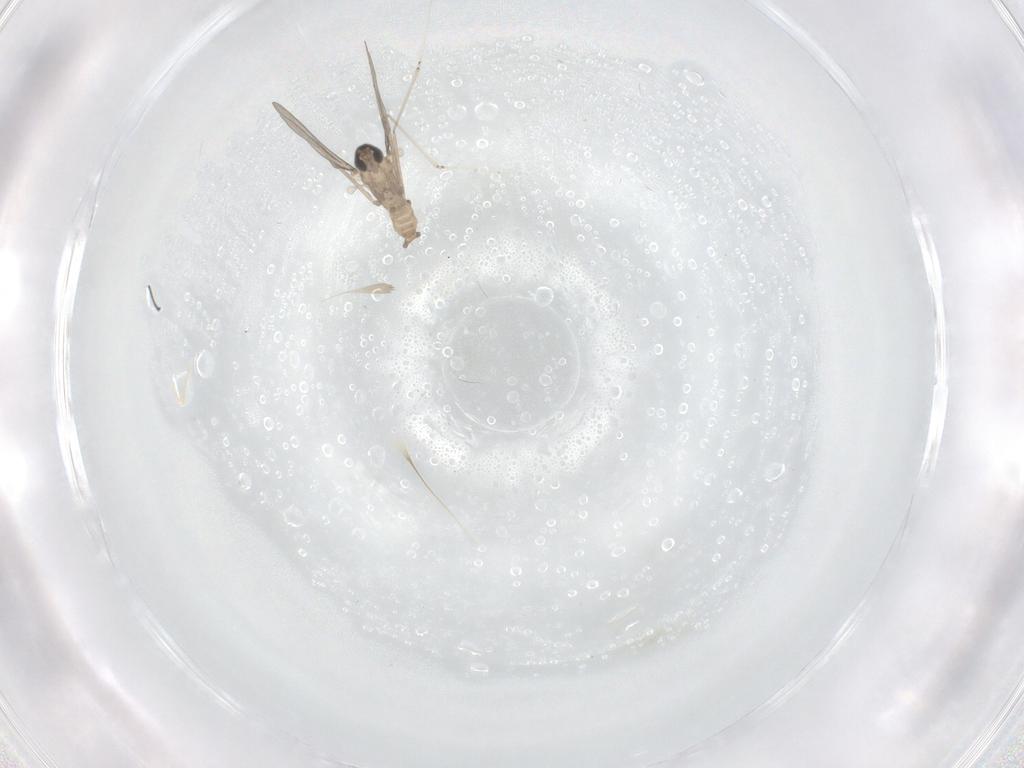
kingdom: Animalia
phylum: Arthropoda
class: Insecta
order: Diptera
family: Cecidomyiidae
